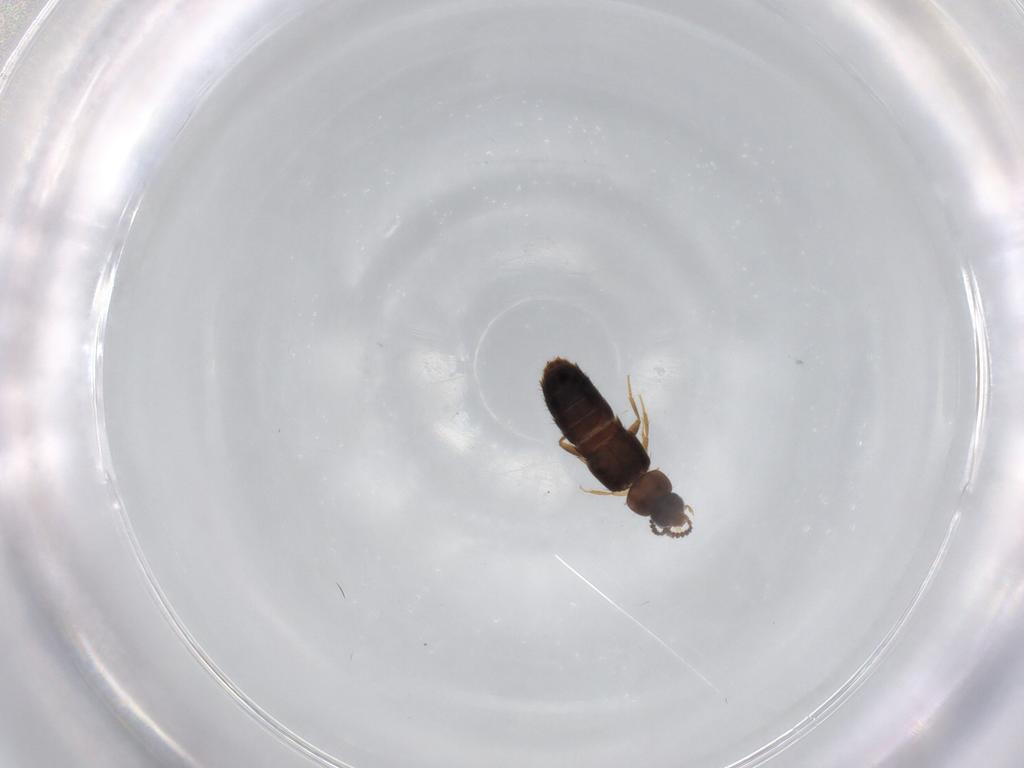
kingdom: Animalia
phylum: Arthropoda
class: Insecta
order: Coleoptera
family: Staphylinidae
